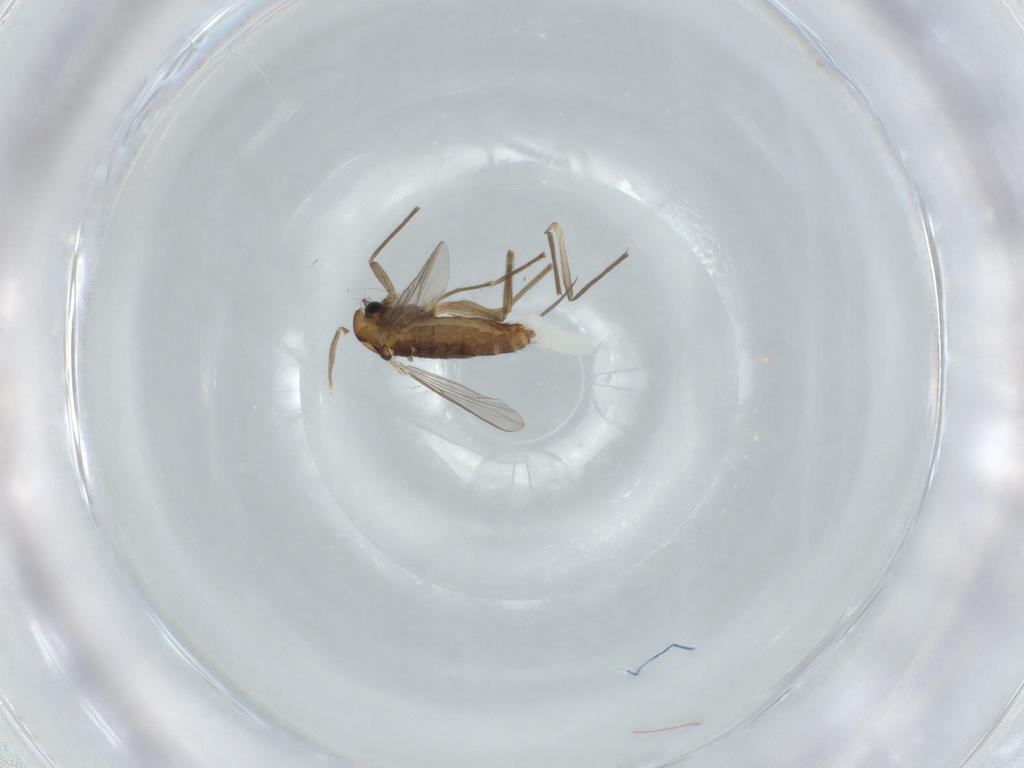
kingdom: Animalia
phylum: Arthropoda
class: Insecta
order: Diptera
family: Chironomidae
